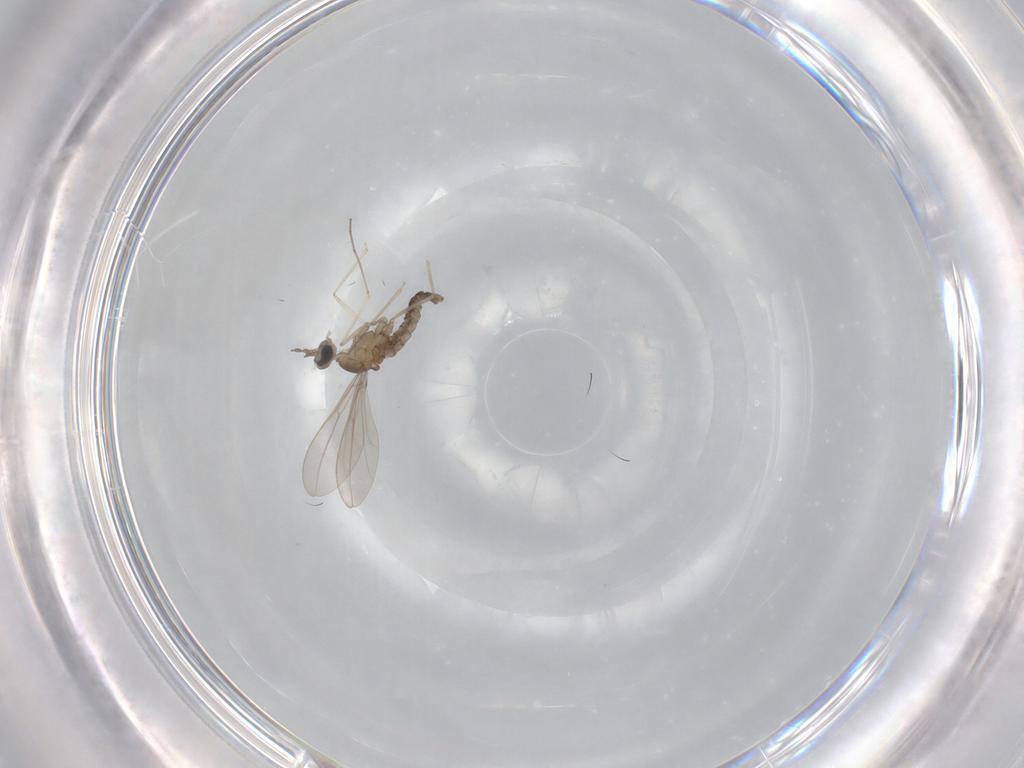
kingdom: Animalia
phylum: Arthropoda
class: Insecta
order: Diptera
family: Cecidomyiidae
